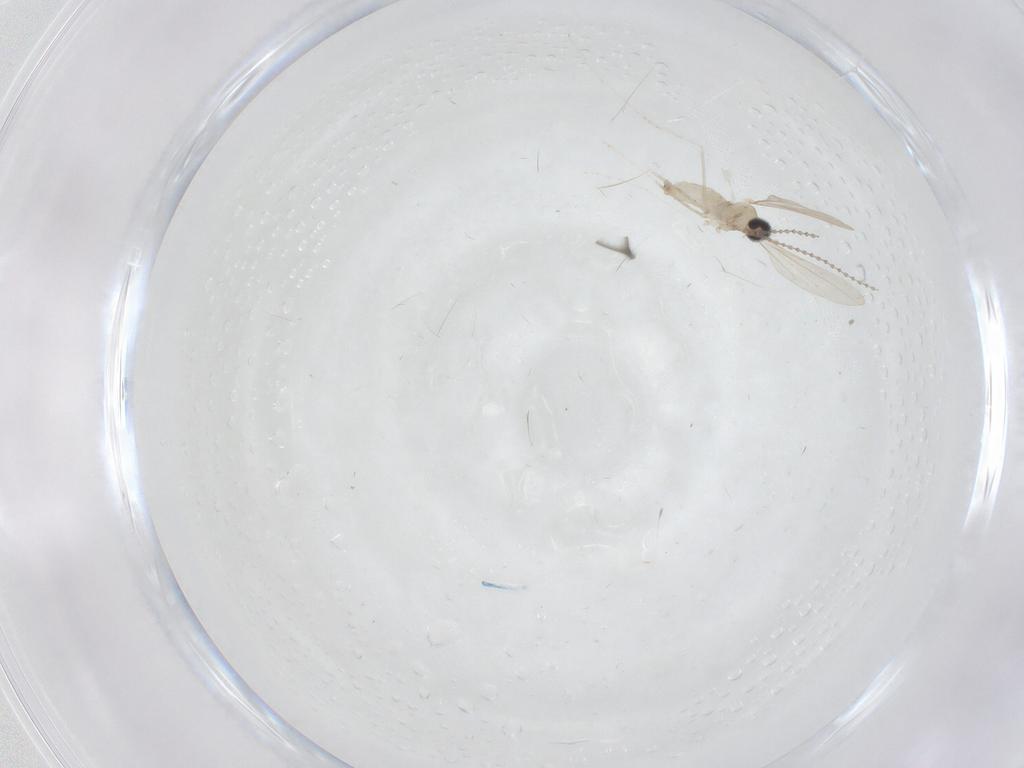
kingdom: Animalia
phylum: Arthropoda
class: Insecta
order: Diptera
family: Cecidomyiidae
